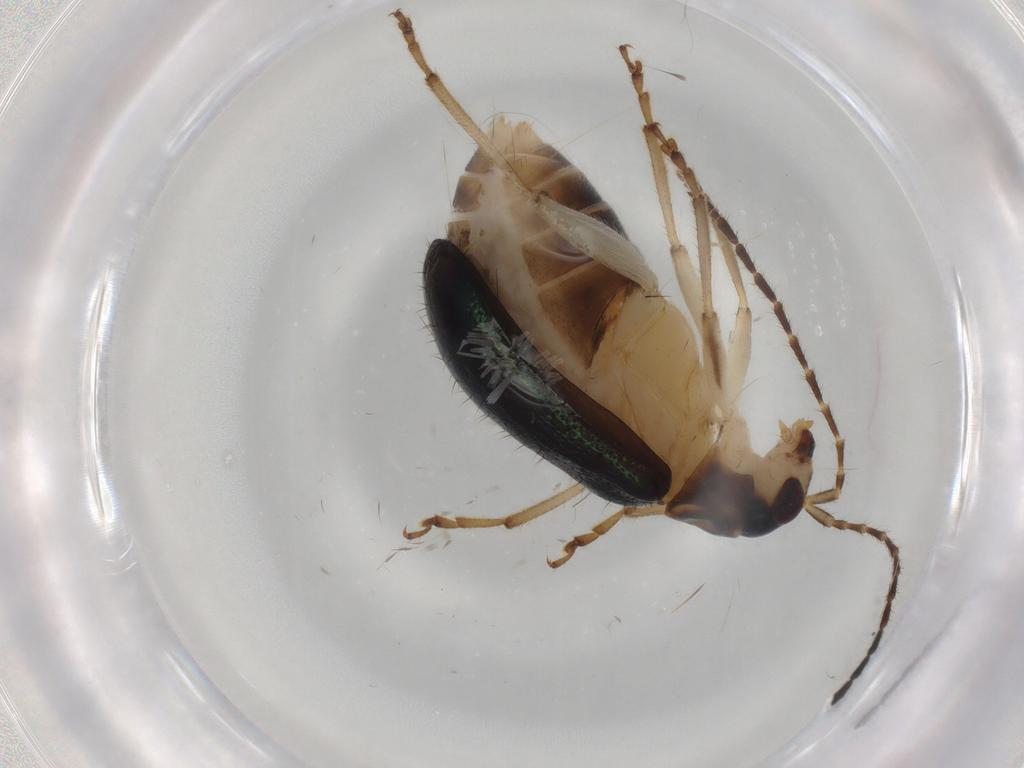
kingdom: Animalia
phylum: Arthropoda
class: Insecta
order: Coleoptera
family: Chrysomelidae
